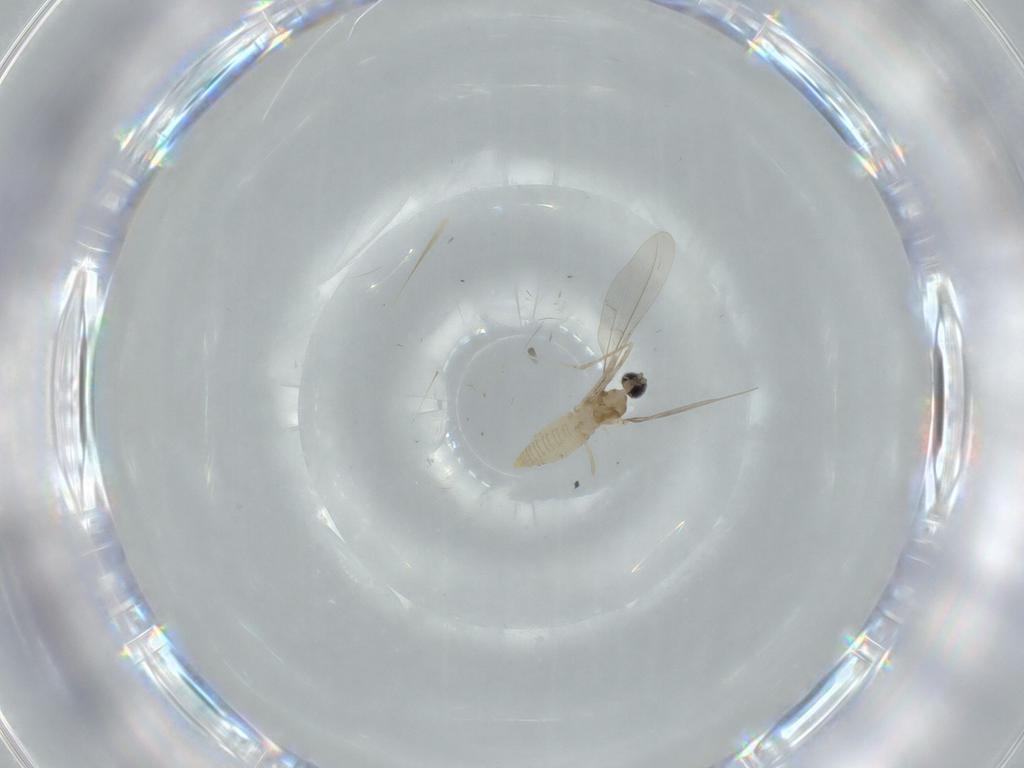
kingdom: Animalia
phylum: Arthropoda
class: Insecta
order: Diptera
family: Cecidomyiidae
